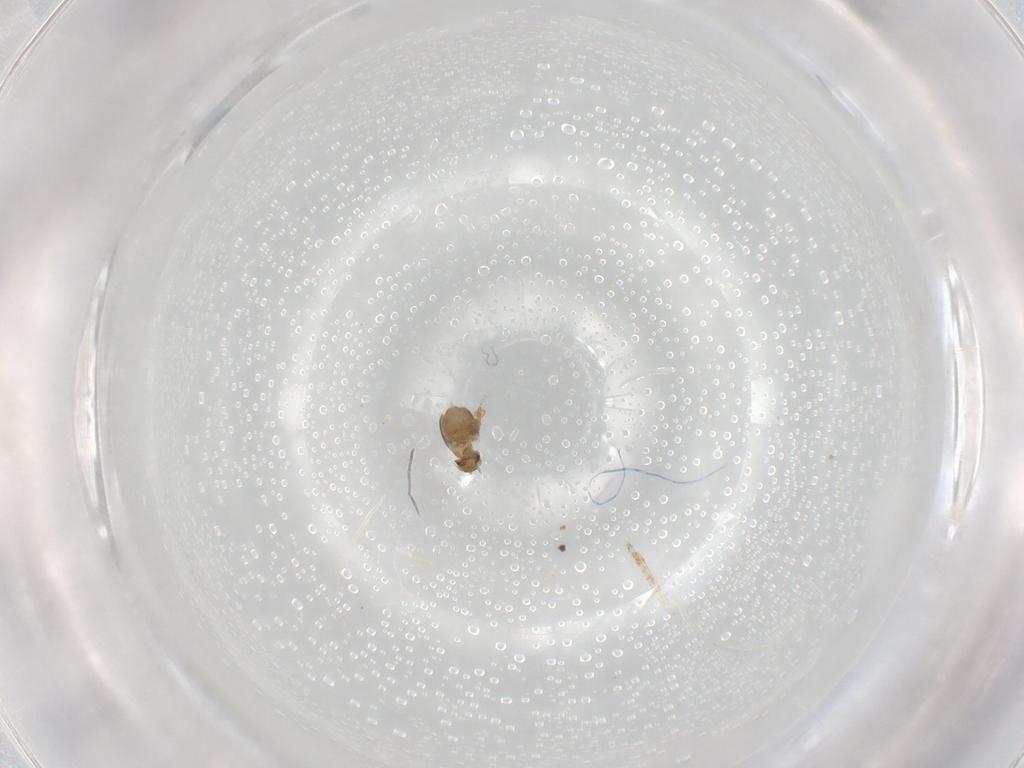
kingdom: Animalia
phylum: Arthropoda
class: Insecta
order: Diptera
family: Phoridae
